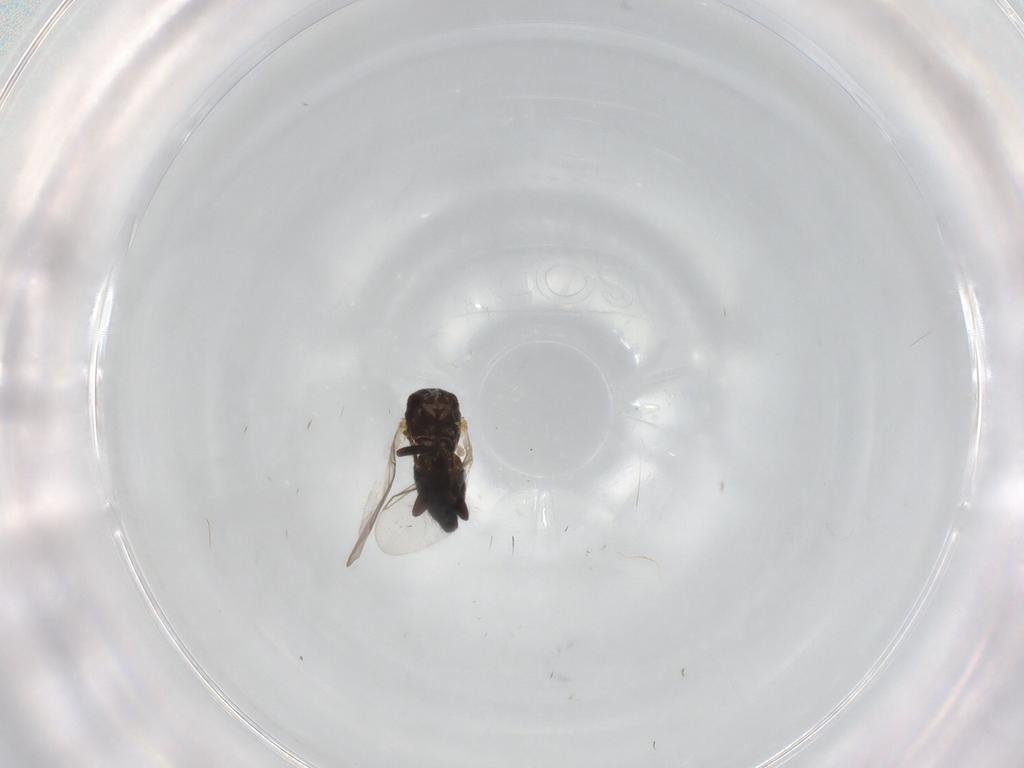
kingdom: Animalia
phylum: Arthropoda
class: Insecta
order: Diptera
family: Agromyzidae
